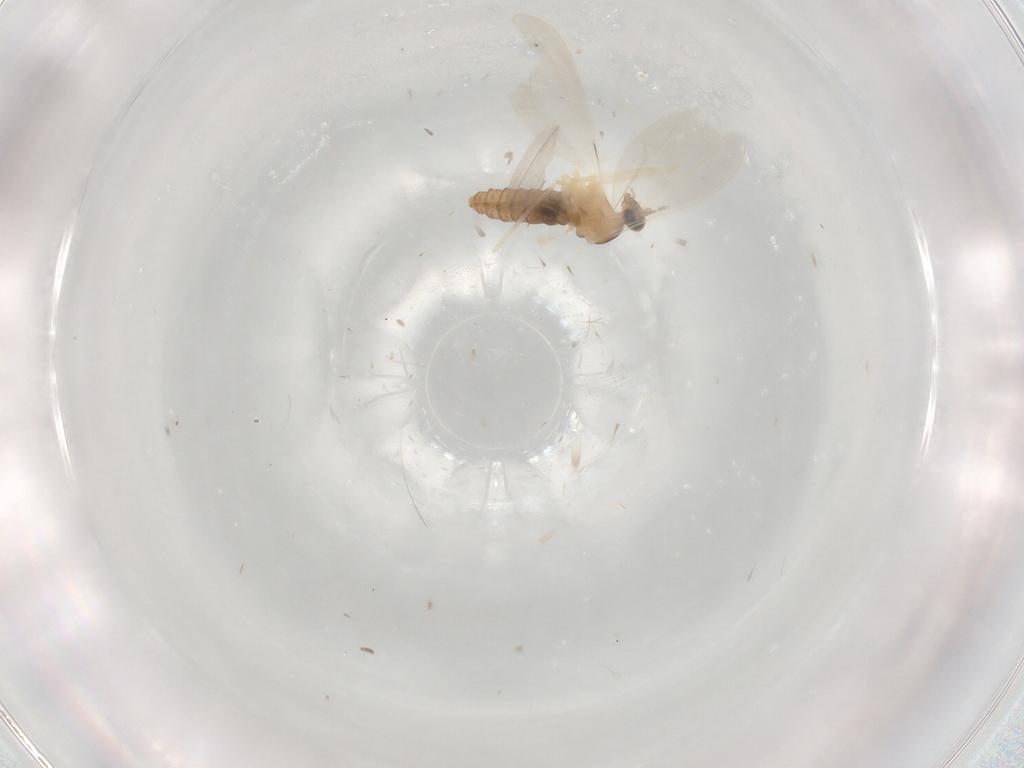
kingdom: Animalia
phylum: Arthropoda
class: Insecta
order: Diptera
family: Cecidomyiidae
